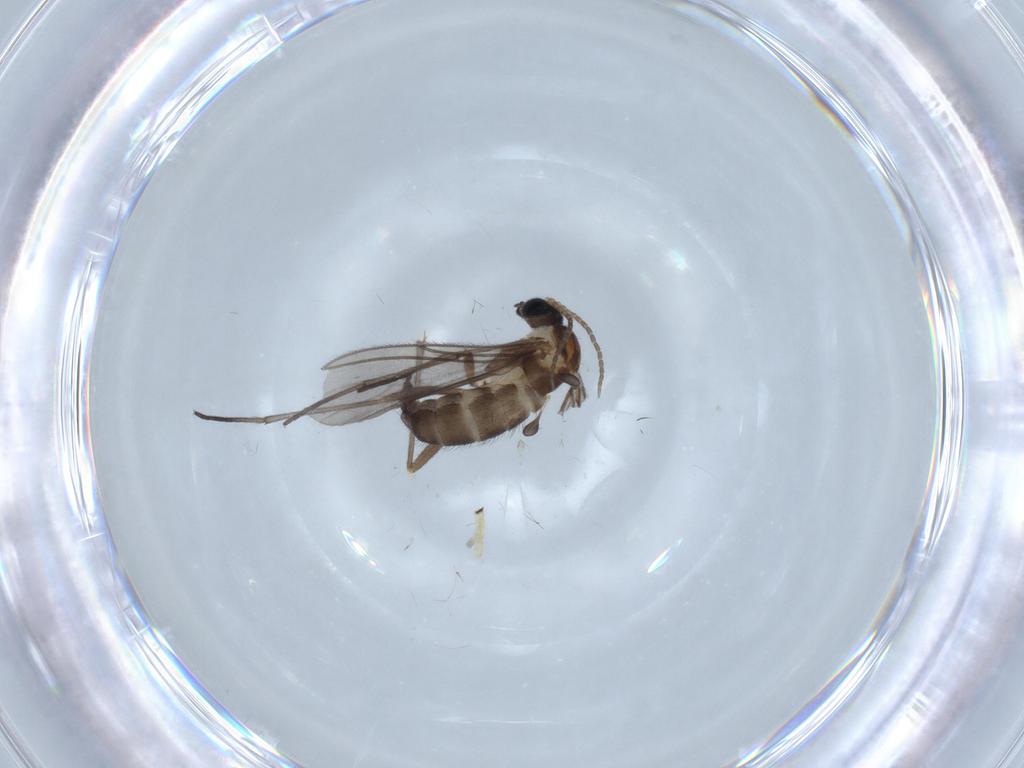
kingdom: Animalia
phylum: Arthropoda
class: Insecta
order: Diptera
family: Sciaridae
